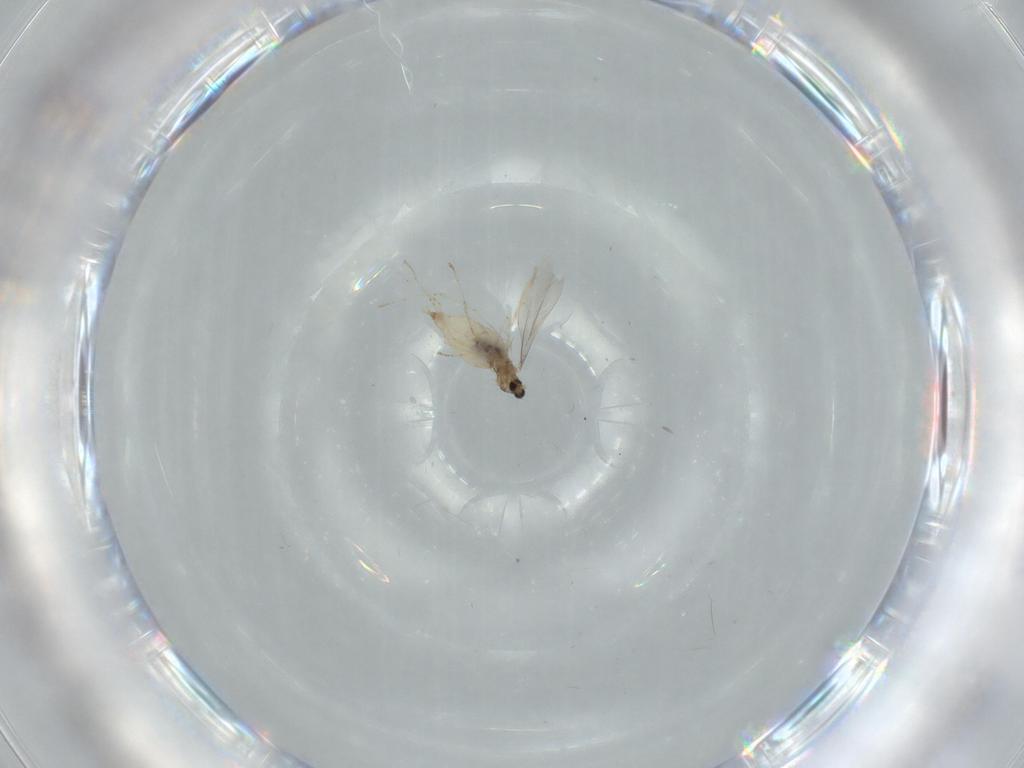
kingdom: Animalia
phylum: Arthropoda
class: Insecta
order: Diptera
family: Cecidomyiidae
